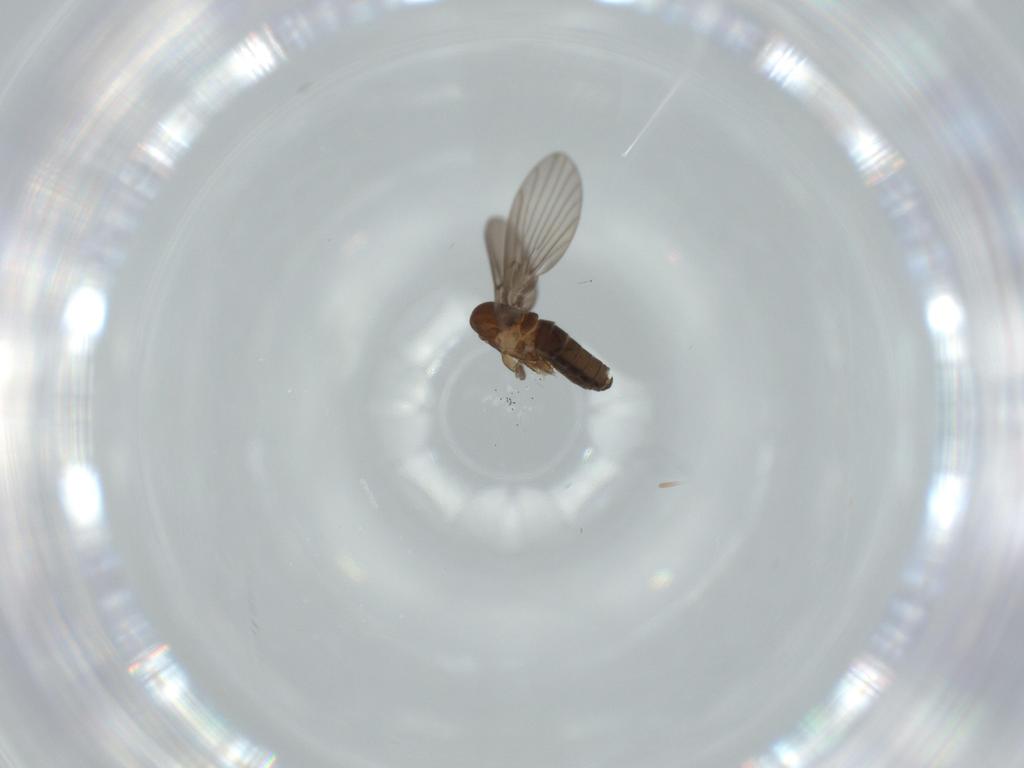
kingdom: Animalia
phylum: Arthropoda
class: Insecta
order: Diptera
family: Psychodidae
